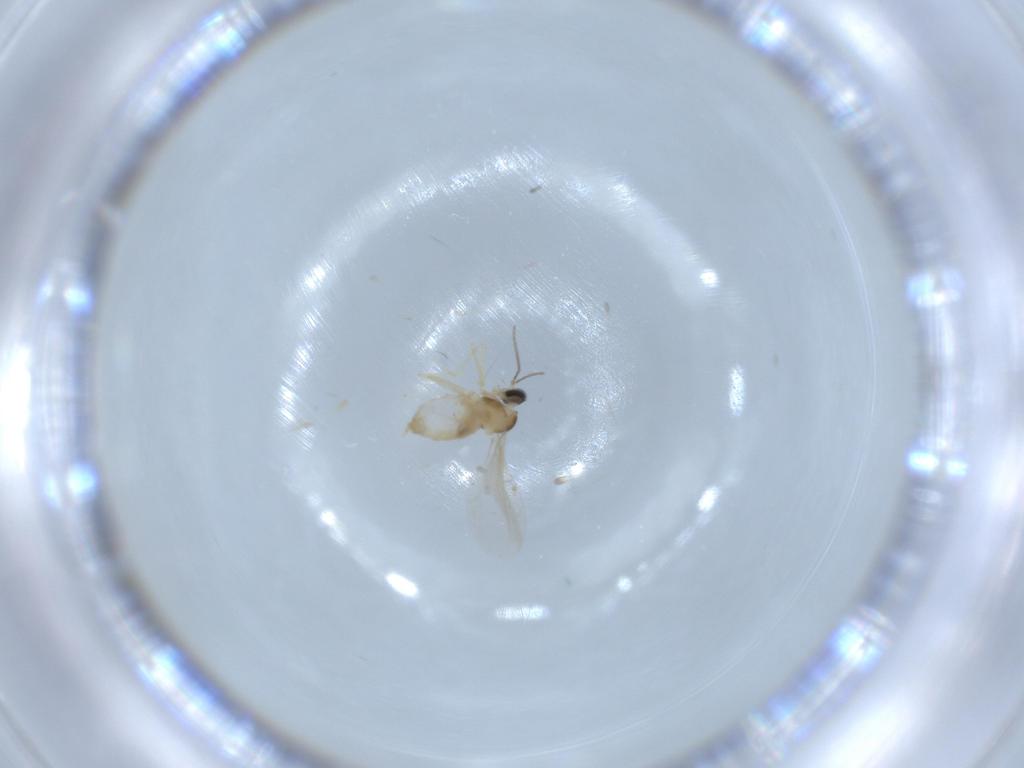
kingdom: Animalia
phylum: Arthropoda
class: Insecta
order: Diptera
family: Cecidomyiidae
